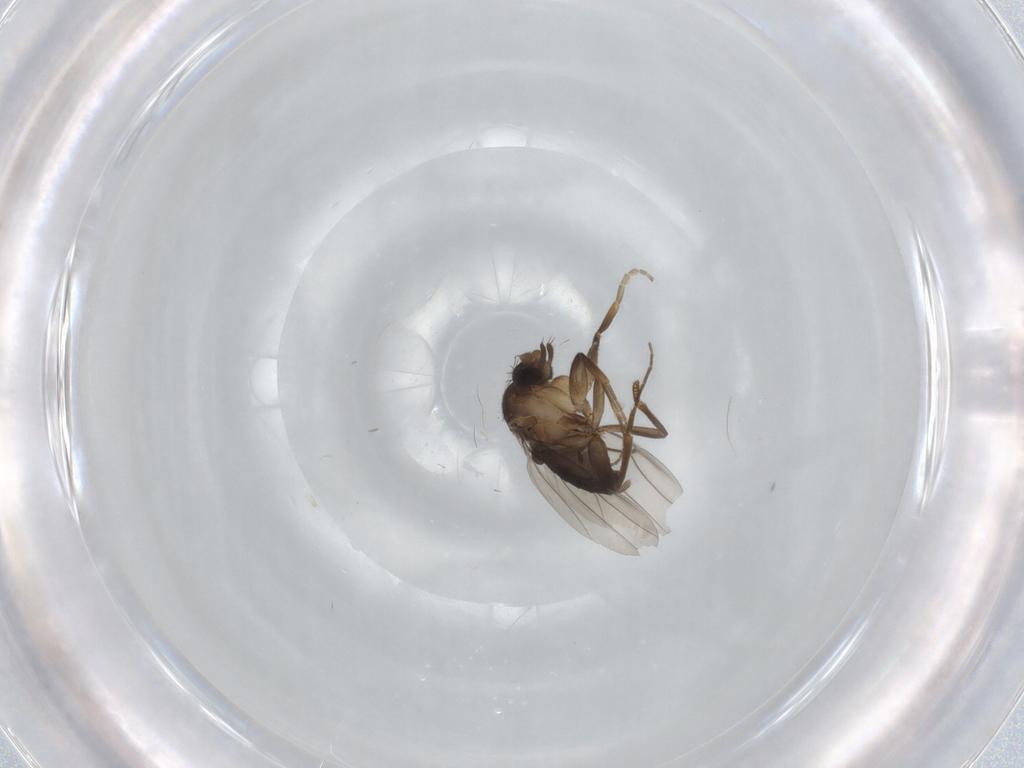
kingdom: Animalia
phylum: Arthropoda
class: Insecta
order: Diptera
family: Phoridae
